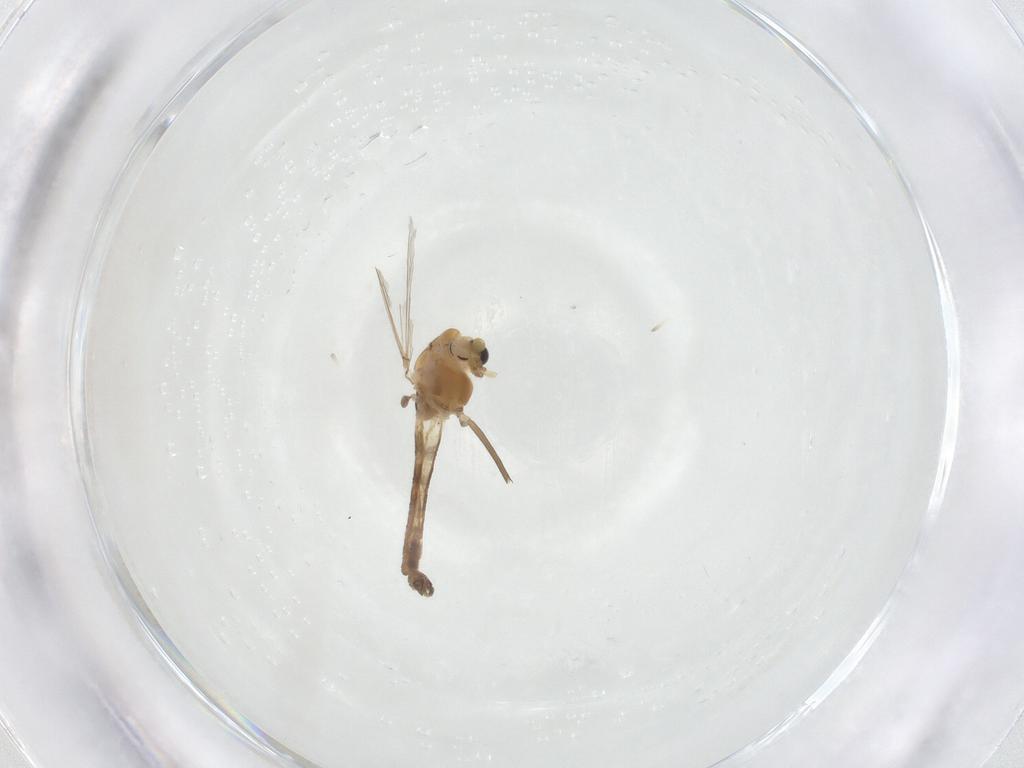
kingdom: Animalia
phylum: Arthropoda
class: Insecta
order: Diptera
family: Chironomidae
